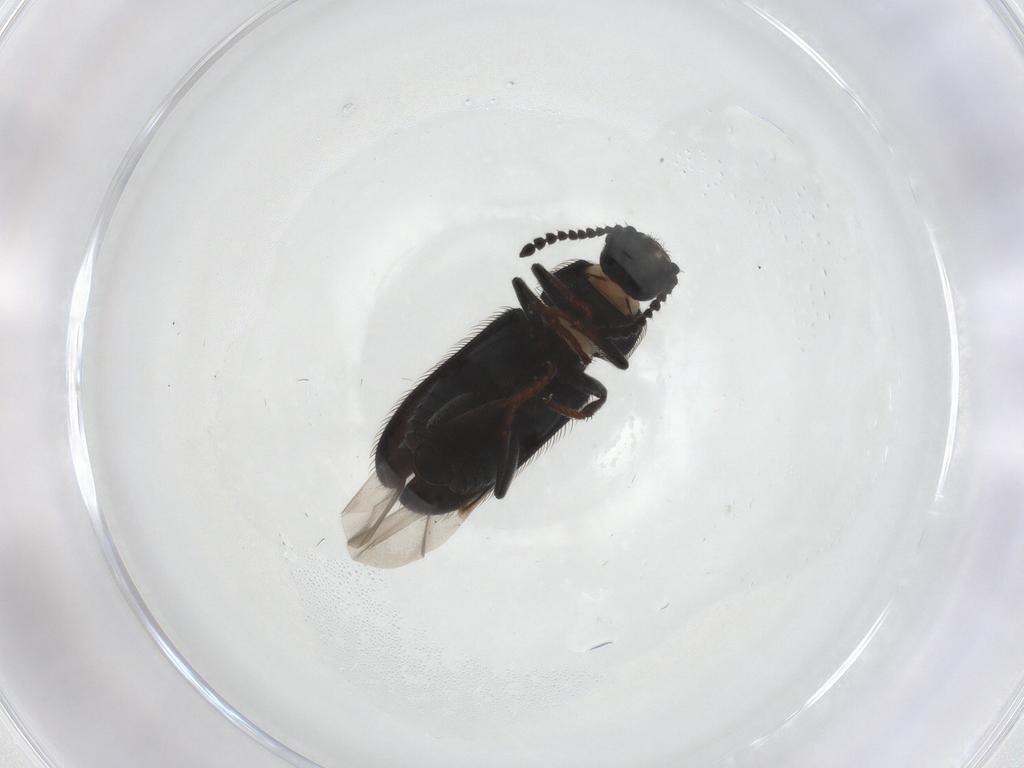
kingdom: Animalia
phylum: Arthropoda
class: Insecta
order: Coleoptera
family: Melyridae
